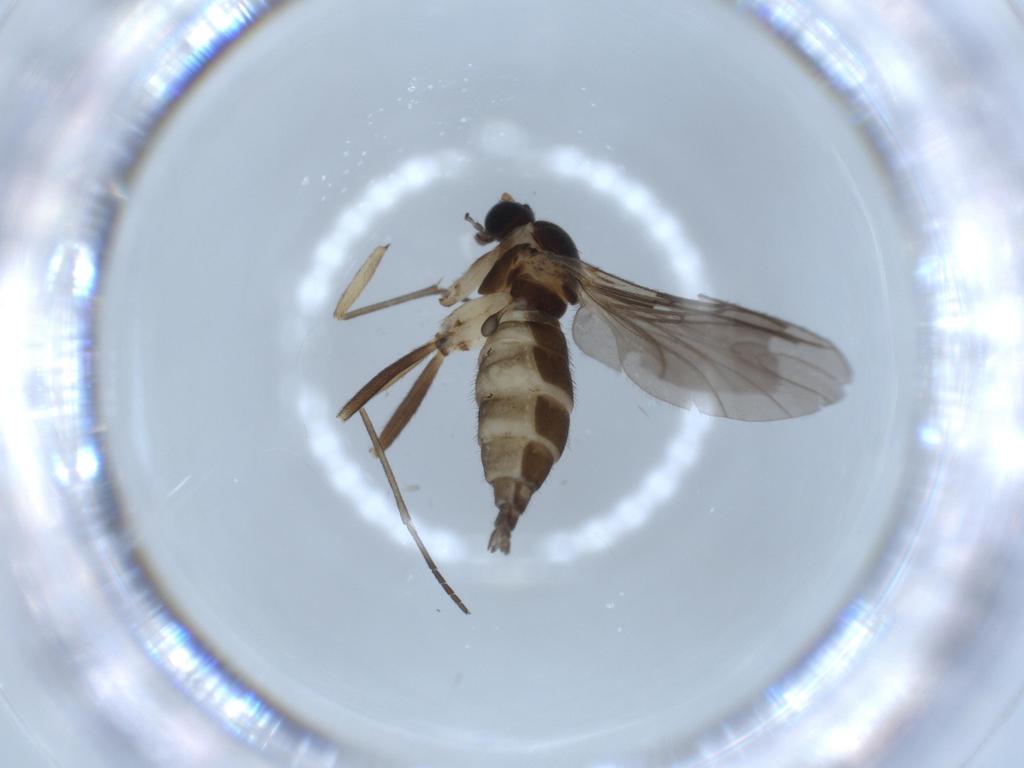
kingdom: Animalia
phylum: Arthropoda
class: Insecta
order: Diptera
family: Sciaridae
